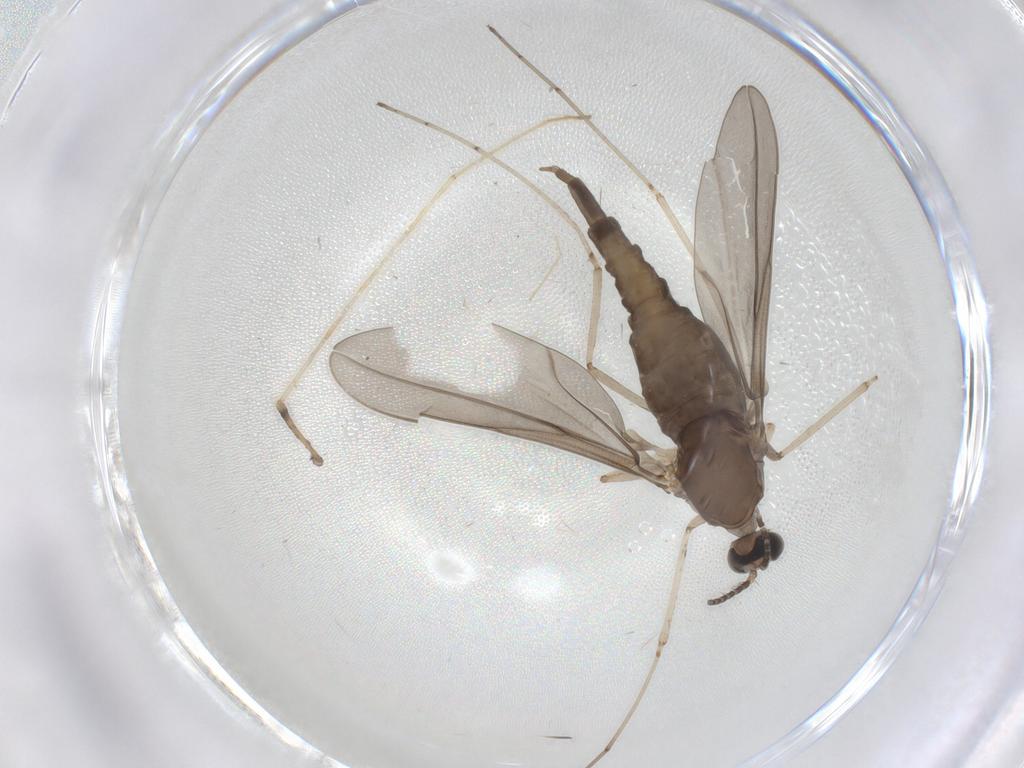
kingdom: Animalia
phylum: Arthropoda
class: Insecta
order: Diptera
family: Cecidomyiidae
